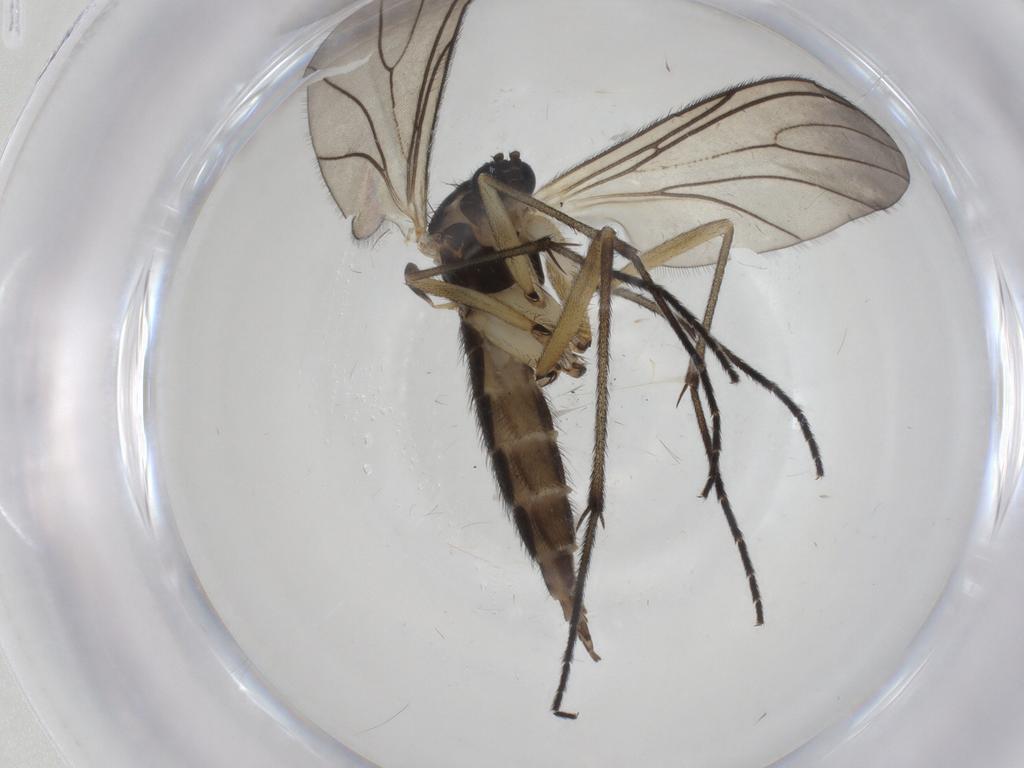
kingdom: Animalia
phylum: Arthropoda
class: Insecta
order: Diptera
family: Sciaridae
